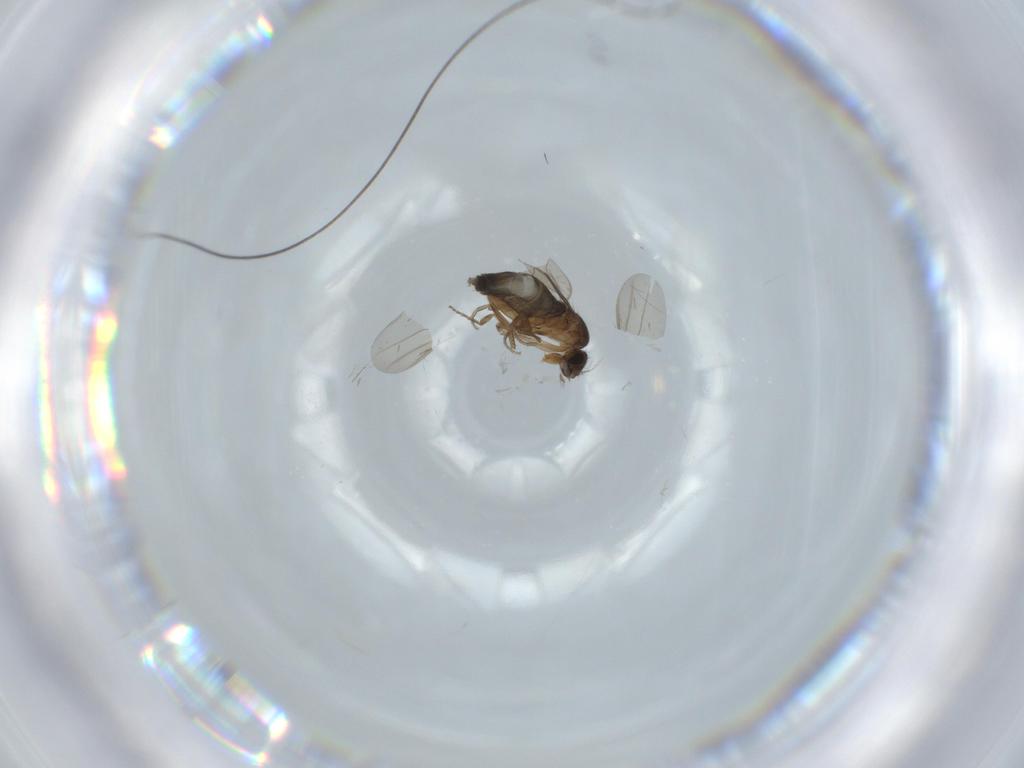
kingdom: Animalia
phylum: Arthropoda
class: Insecta
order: Diptera
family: Phoridae
